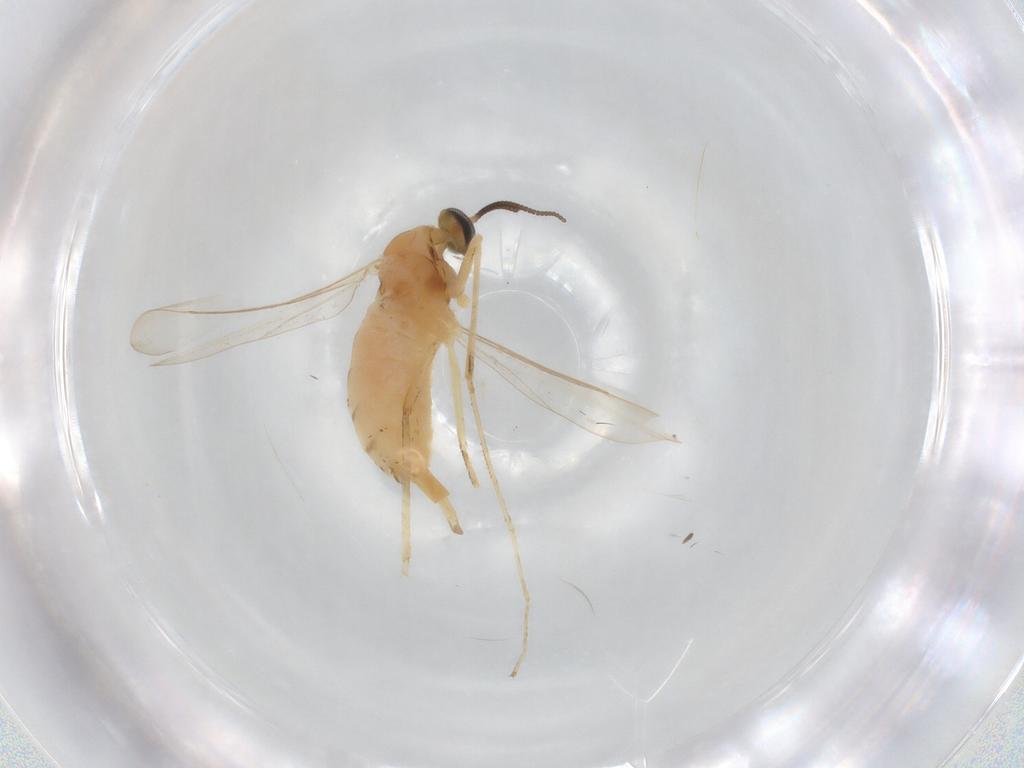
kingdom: Animalia
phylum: Arthropoda
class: Insecta
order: Diptera
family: Cecidomyiidae
